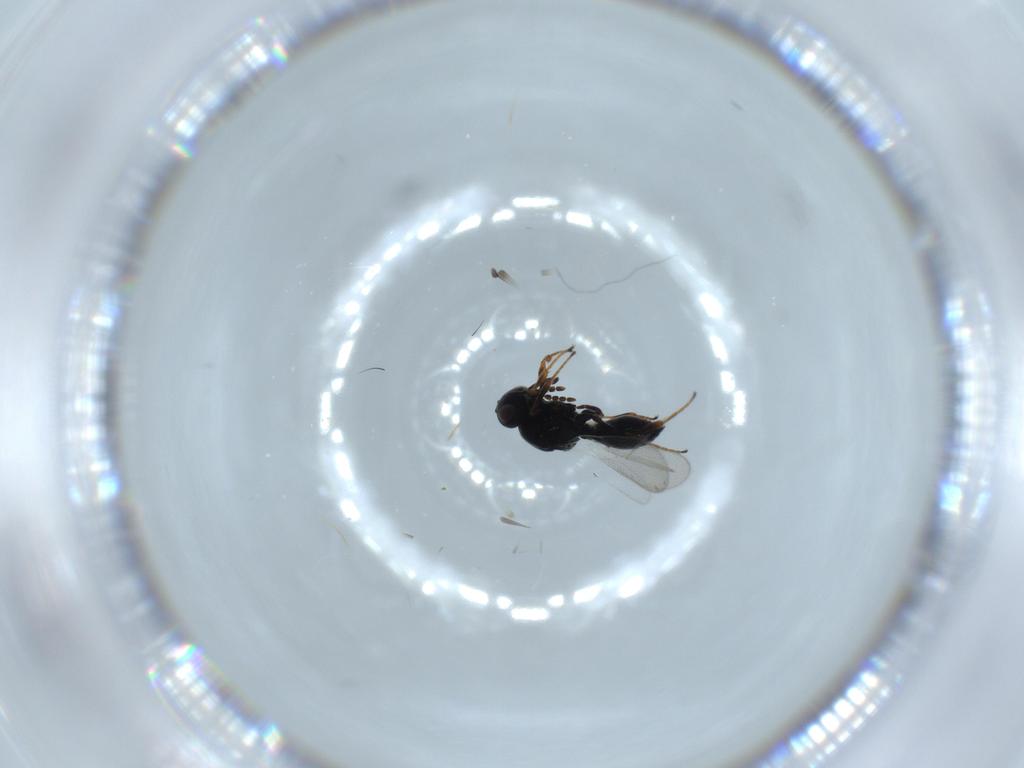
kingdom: Animalia
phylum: Arthropoda
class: Insecta
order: Hymenoptera
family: Platygastridae
